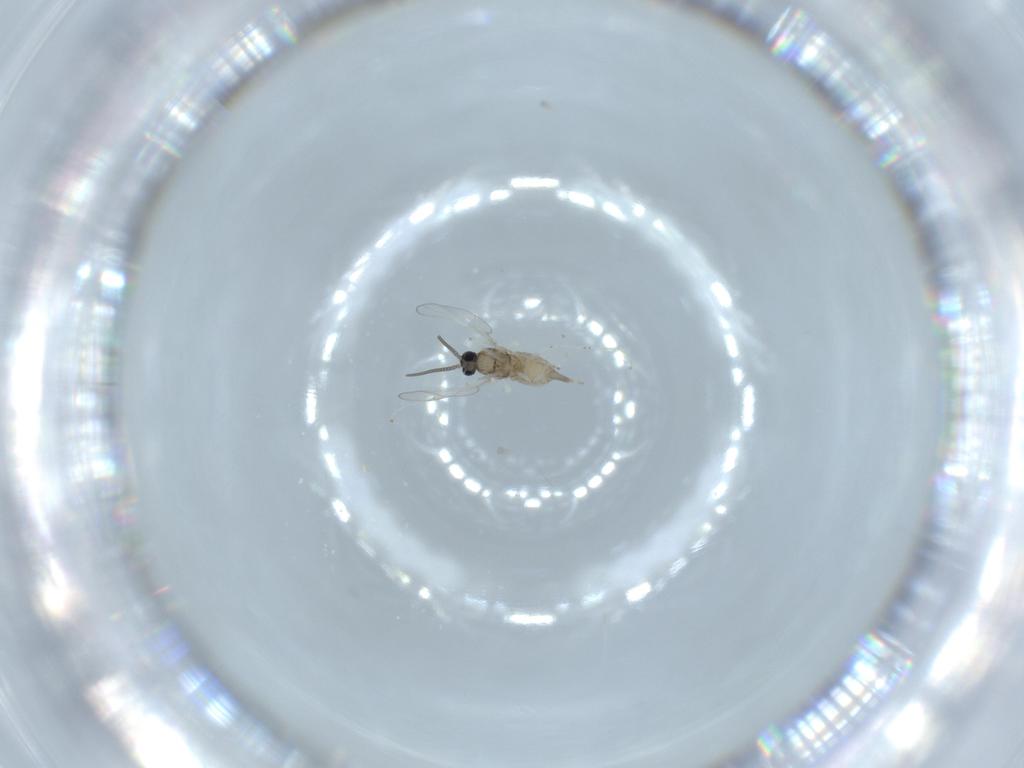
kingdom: Animalia
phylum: Arthropoda
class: Insecta
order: Diptera
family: Cecidomyiidae
